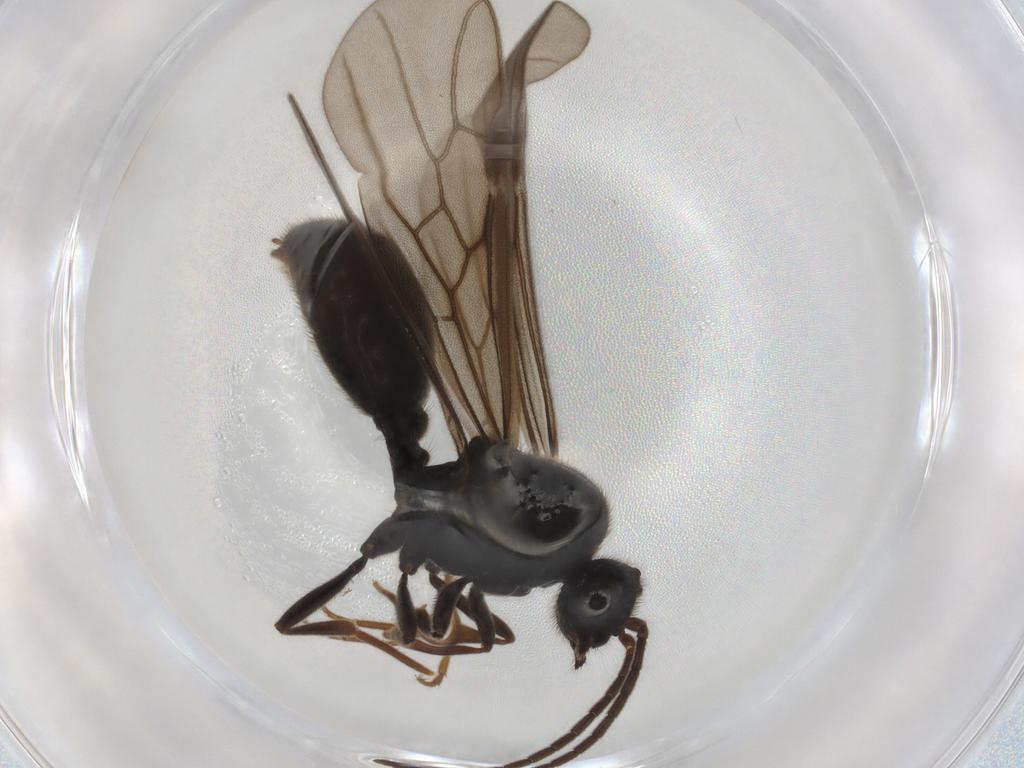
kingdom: Animalia
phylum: Arthropoda
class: Insecta
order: Hymenoptera
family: Formicidae
